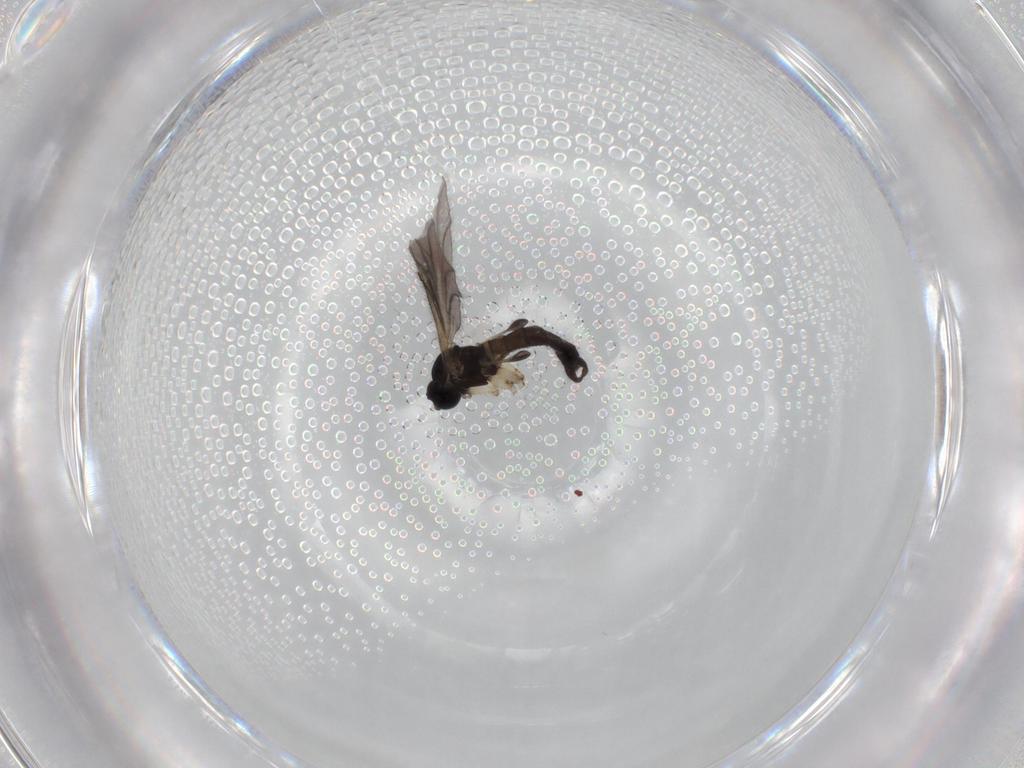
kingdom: Animalia
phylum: Arthropoda
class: Insecta
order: Diptera
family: Sciaridae
